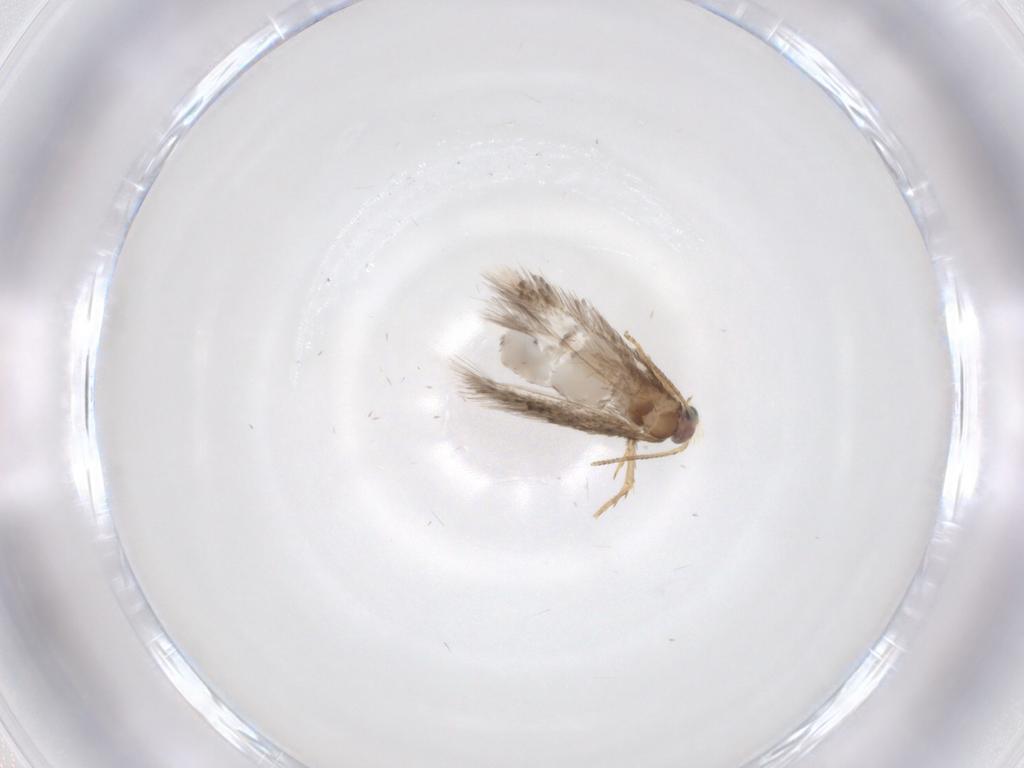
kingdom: Animalia
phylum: Arthropoda
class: Insecta
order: Lepidoptera
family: Nepticulidae
